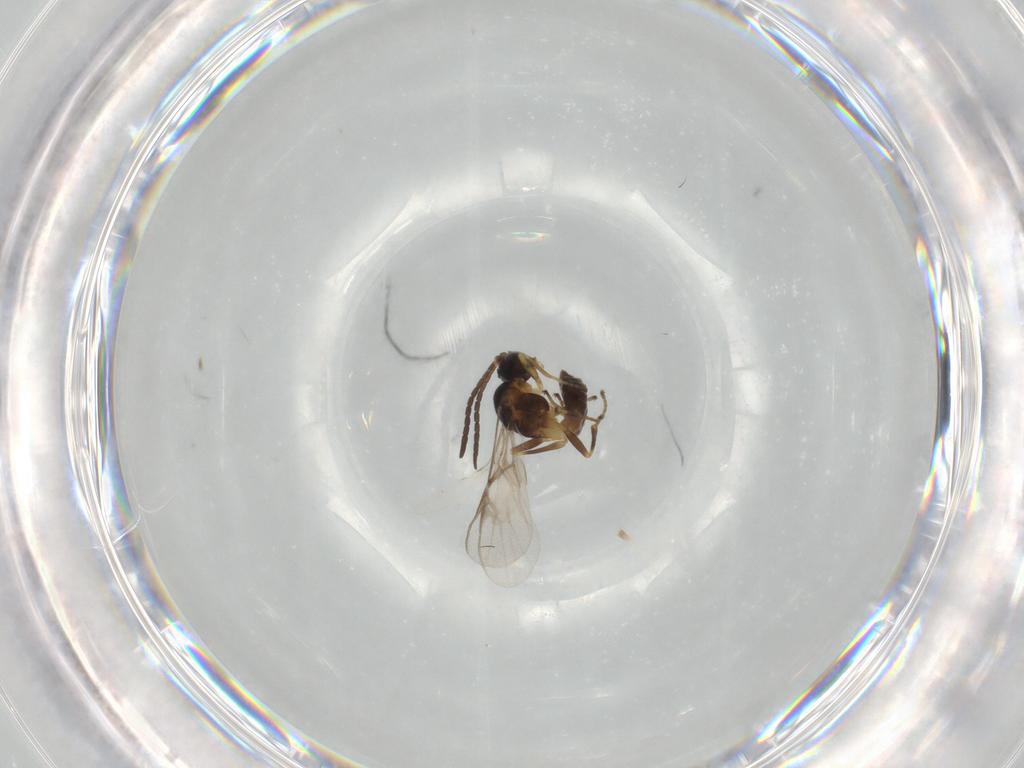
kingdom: Animalia
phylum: Arthropoda
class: Insecta
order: Hymenoptera
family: Braconidae
